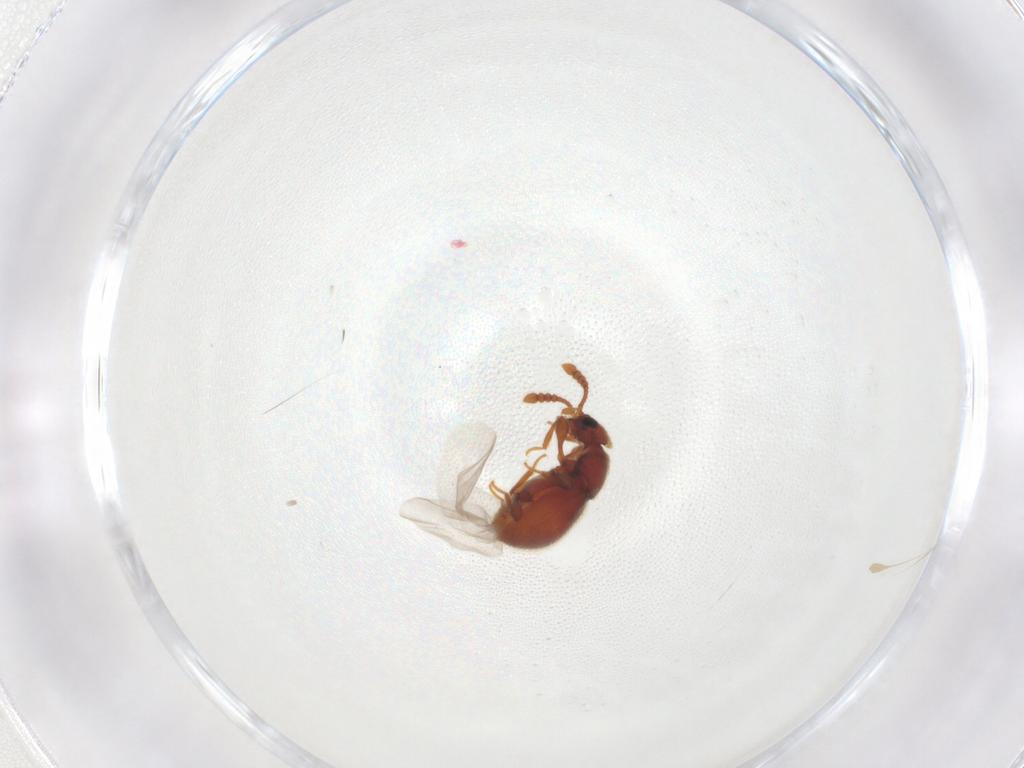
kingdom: Animalia
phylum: Arthropoda
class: Insecta
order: Coleoptera
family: Staphylinidae
